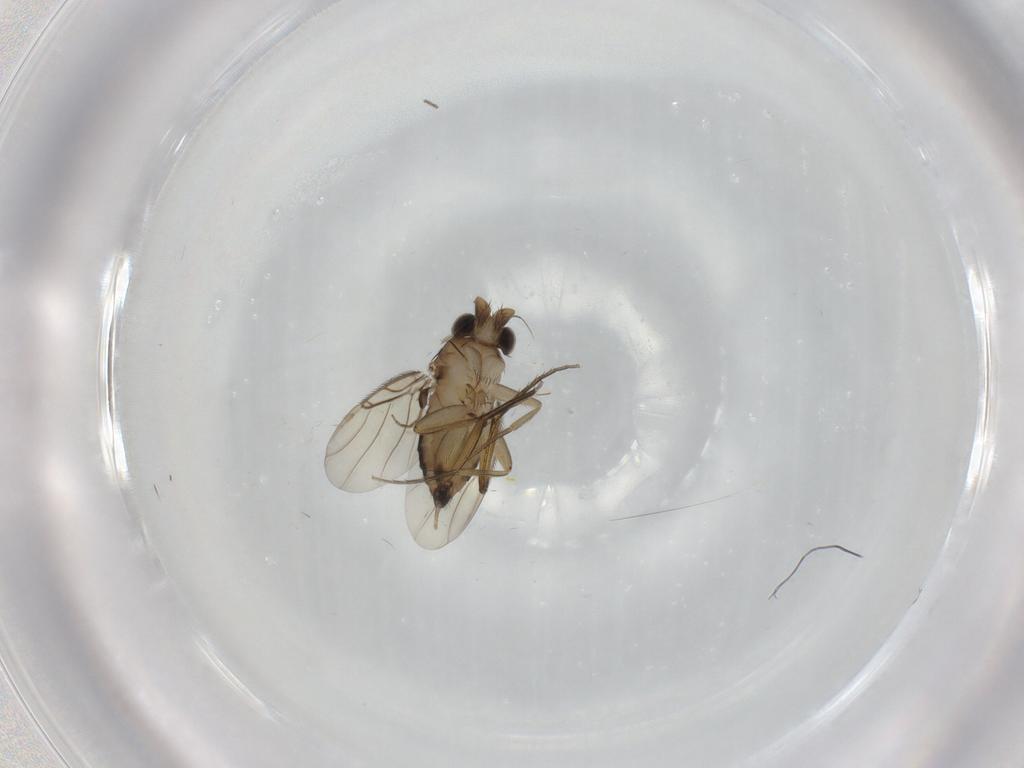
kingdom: Animalia
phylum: Arthropoda
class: Insecta
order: Diptera
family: Phoridae
